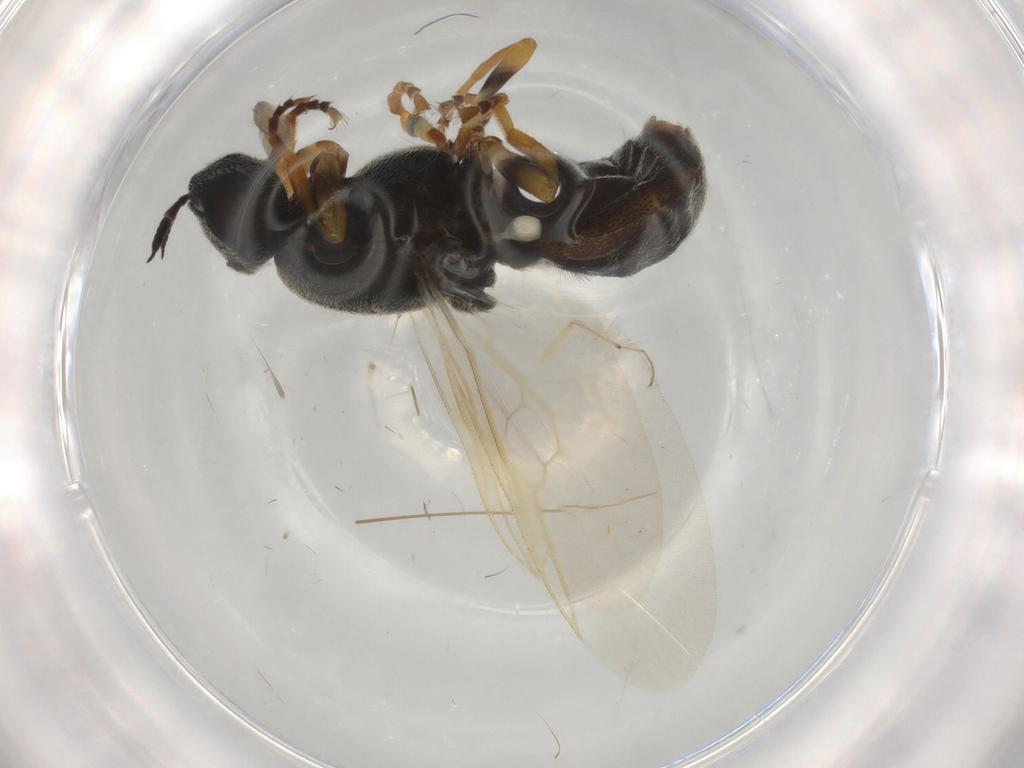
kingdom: Animalia
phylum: Arthropoda
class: Insecta
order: Diptera
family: Stratiomyidae
